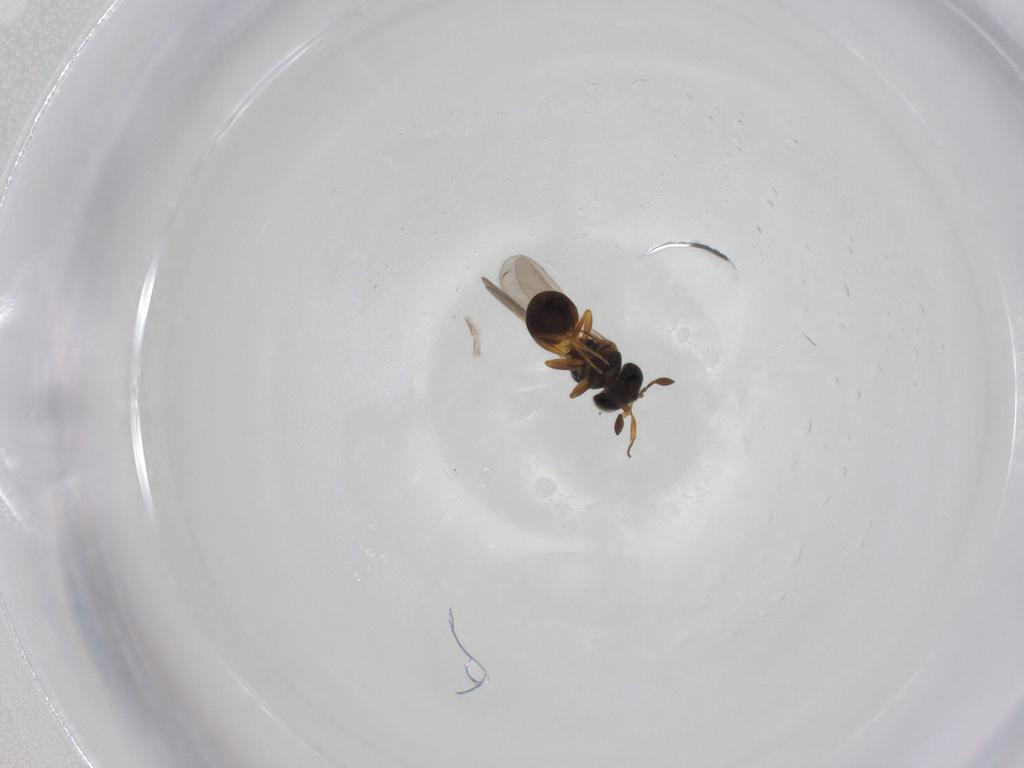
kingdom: Animalia
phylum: Arthropoda
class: Insecta
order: Hymenoptera
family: Scelionidae
